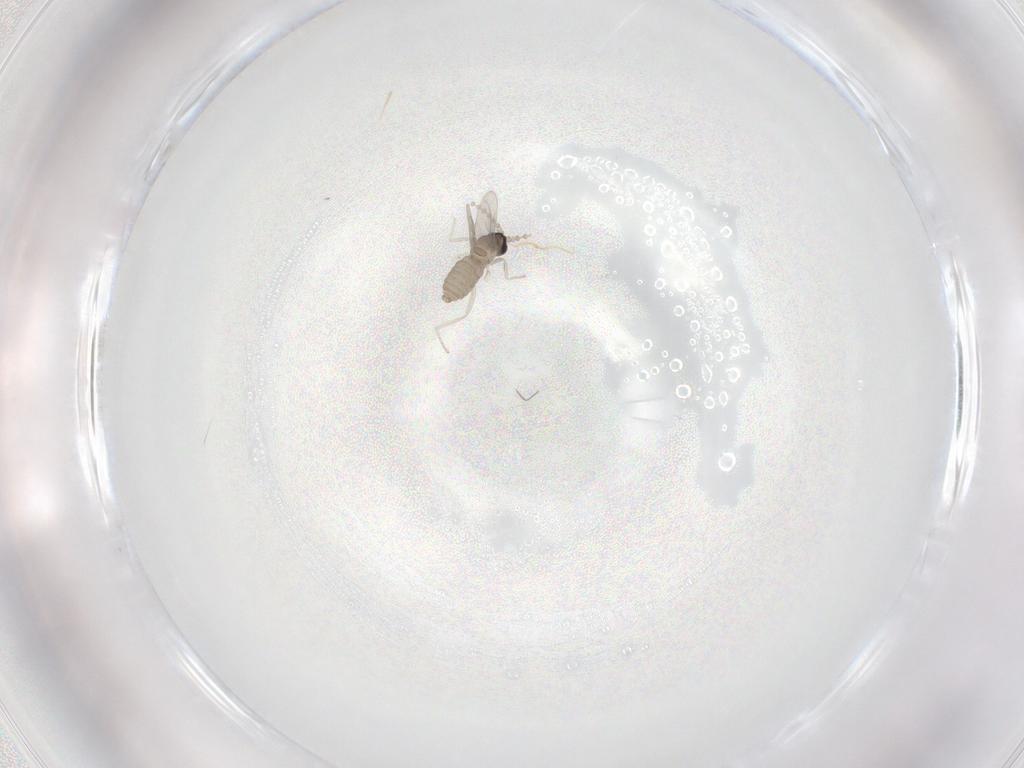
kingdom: Animalia
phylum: Arthropoda
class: Insecta
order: Diptera
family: Cecidomyiidae
